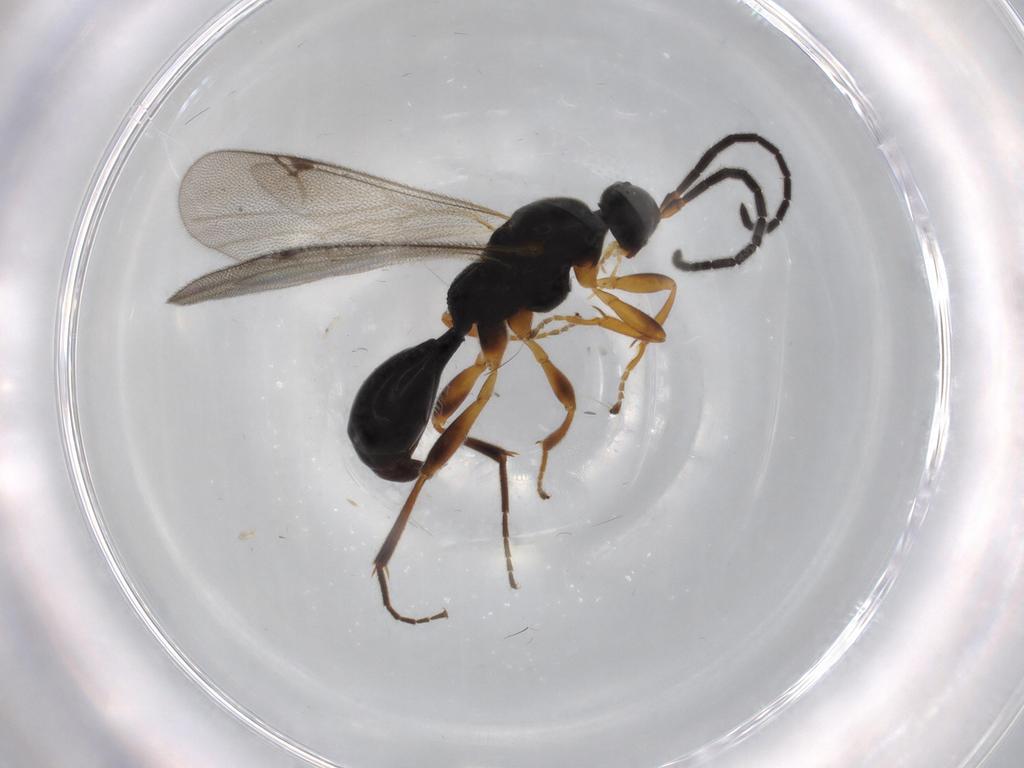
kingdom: Animalia
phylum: Arthropoda
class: Insecta
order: Hymenoptera
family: Proctotrupidae
